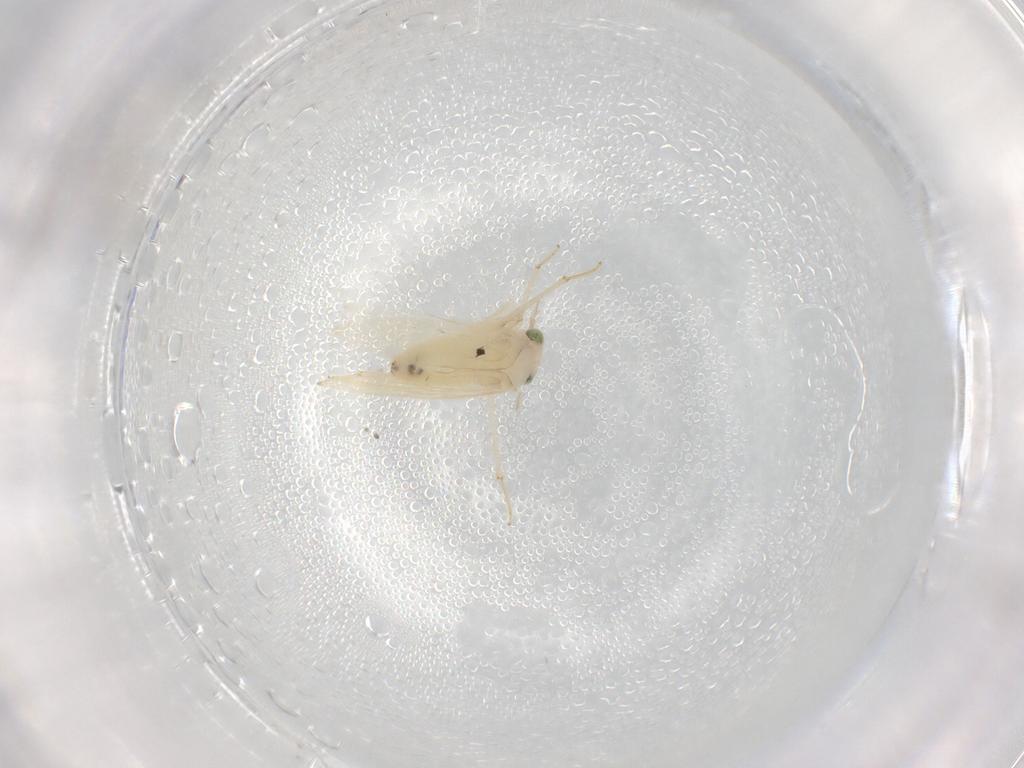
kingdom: Animalia
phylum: Arthropoda
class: Insecta
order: Psocodea
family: Lepidopsocidae
